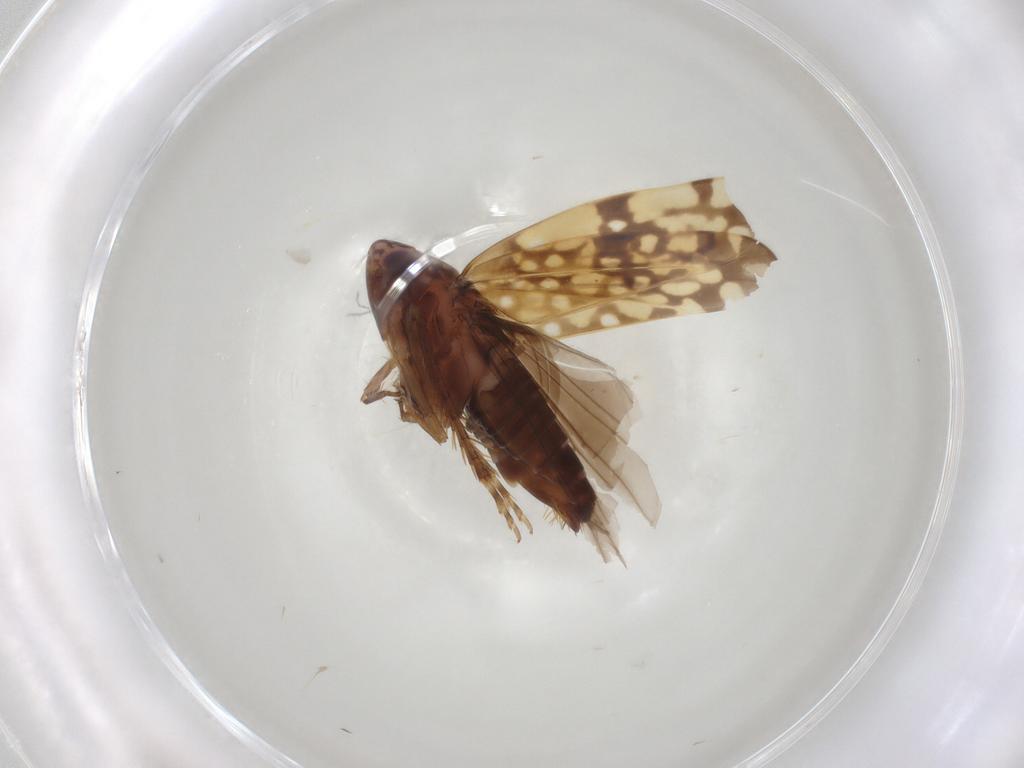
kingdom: Animalia
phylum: Arthropoda
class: Insecta
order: Hemiptera
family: Cicadellidae
